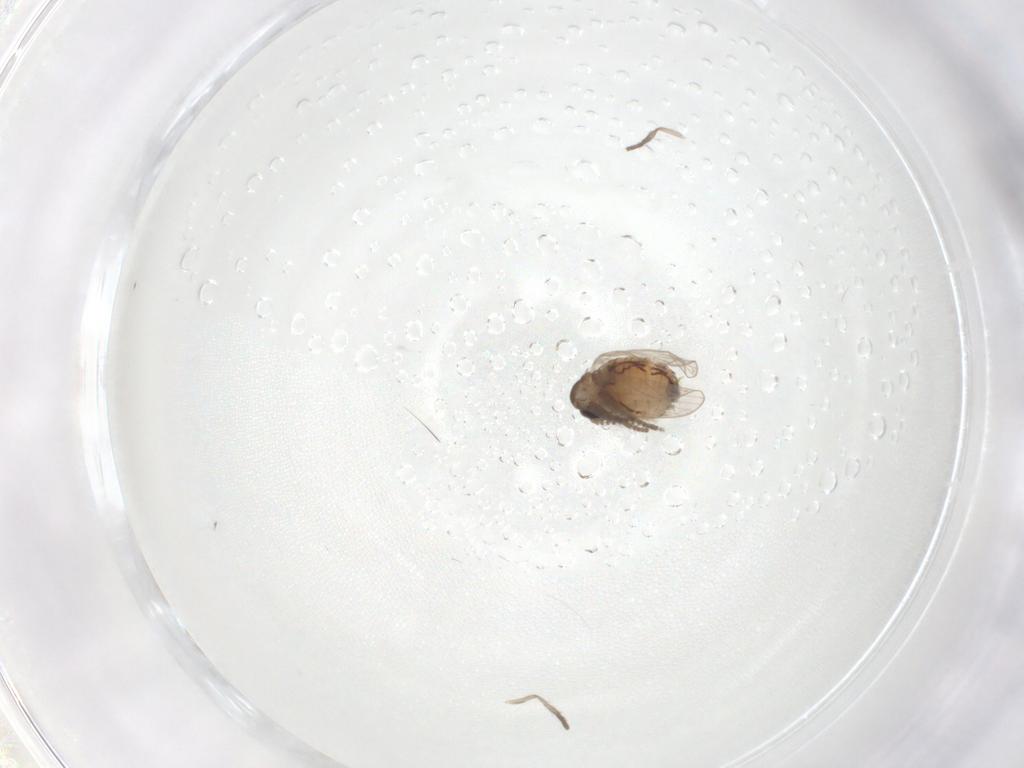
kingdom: Animalia
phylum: Arthropoda
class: Insecta
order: Diptera
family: Psychodidae
